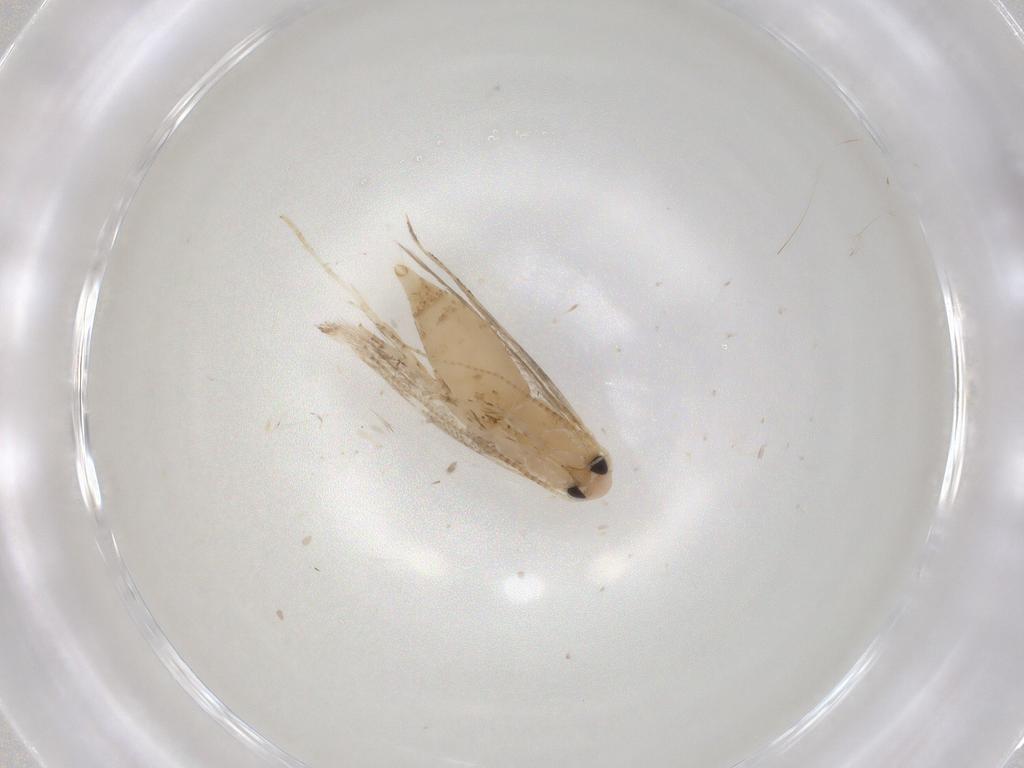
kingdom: Animalia
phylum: Arthropoda
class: Insecta
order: Lepidoptera
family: Gracillariidae
